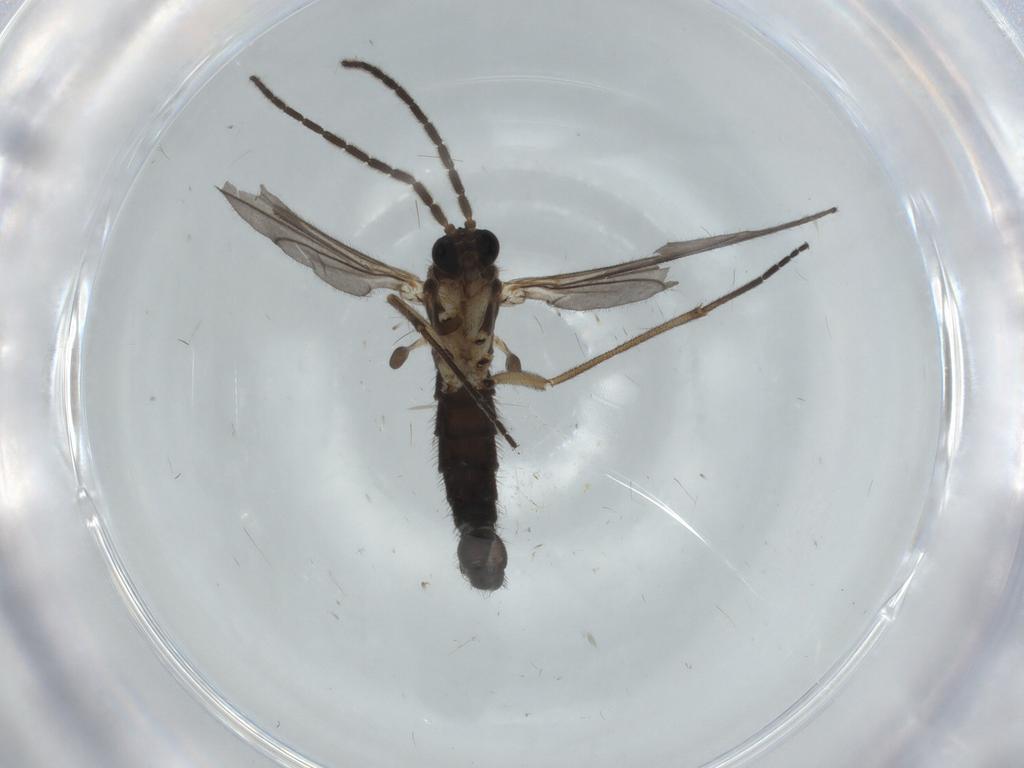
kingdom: Animalia
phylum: Arthropoda
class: Insecta
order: Diptera
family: Sciaridae
